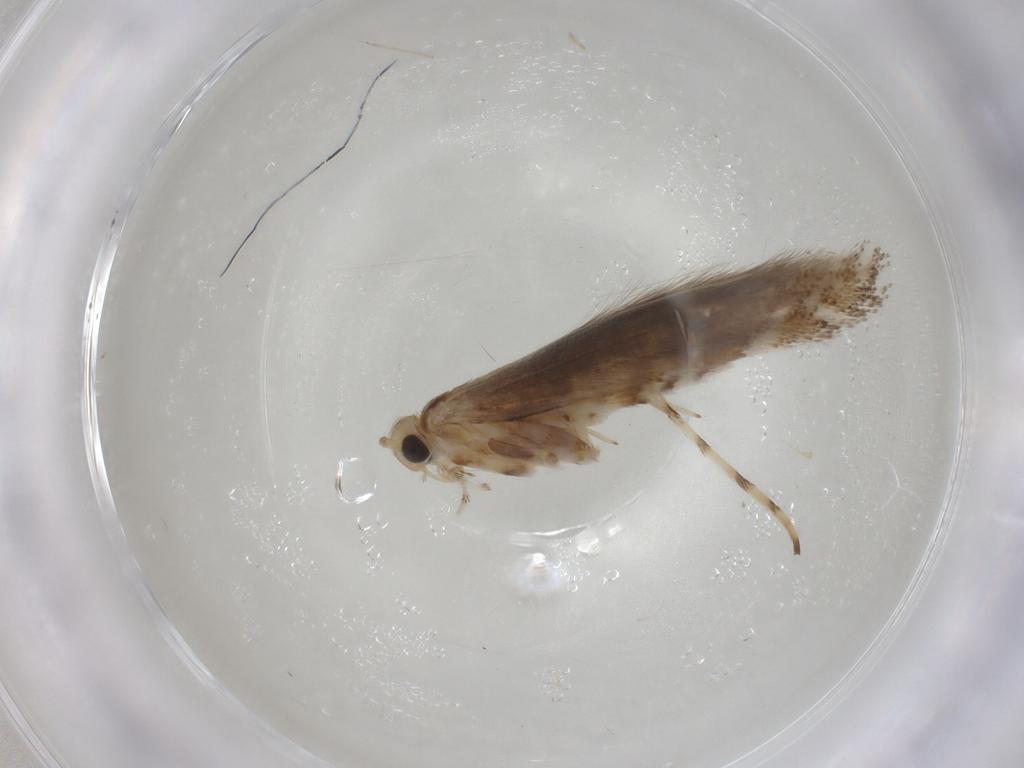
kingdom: Animalia
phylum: Arthropoda
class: Insecta
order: Lepidoptera
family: Gracillariidae
